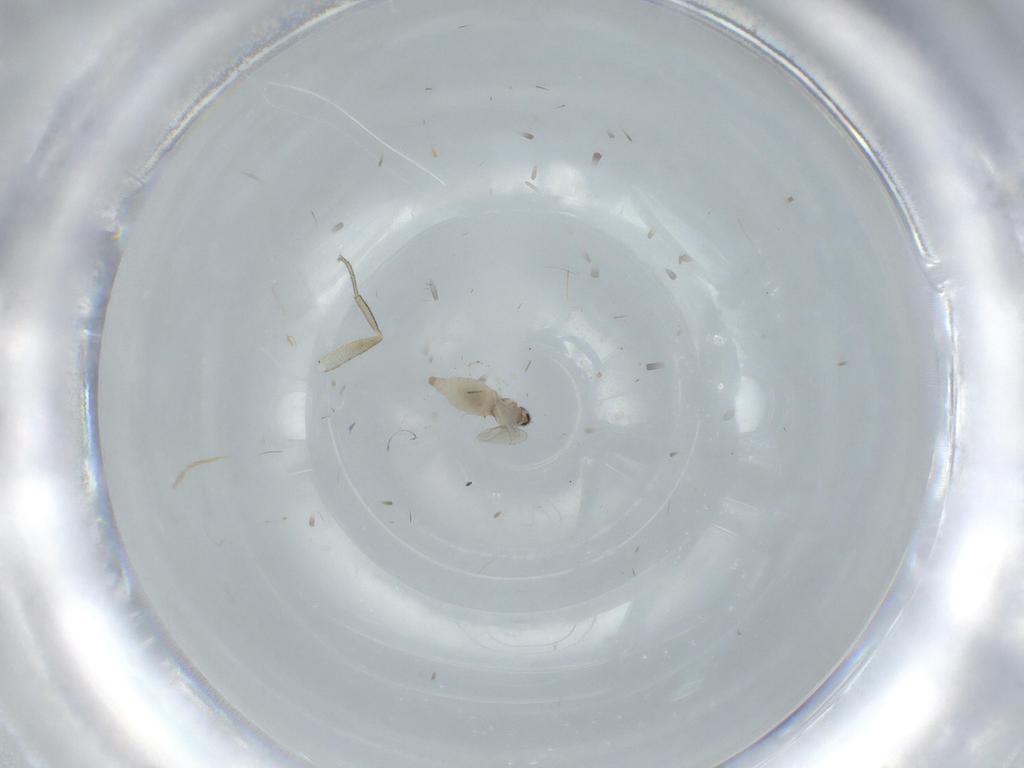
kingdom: Animalia
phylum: Arthropoda
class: Insecta
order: Diptera
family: Phoridae
